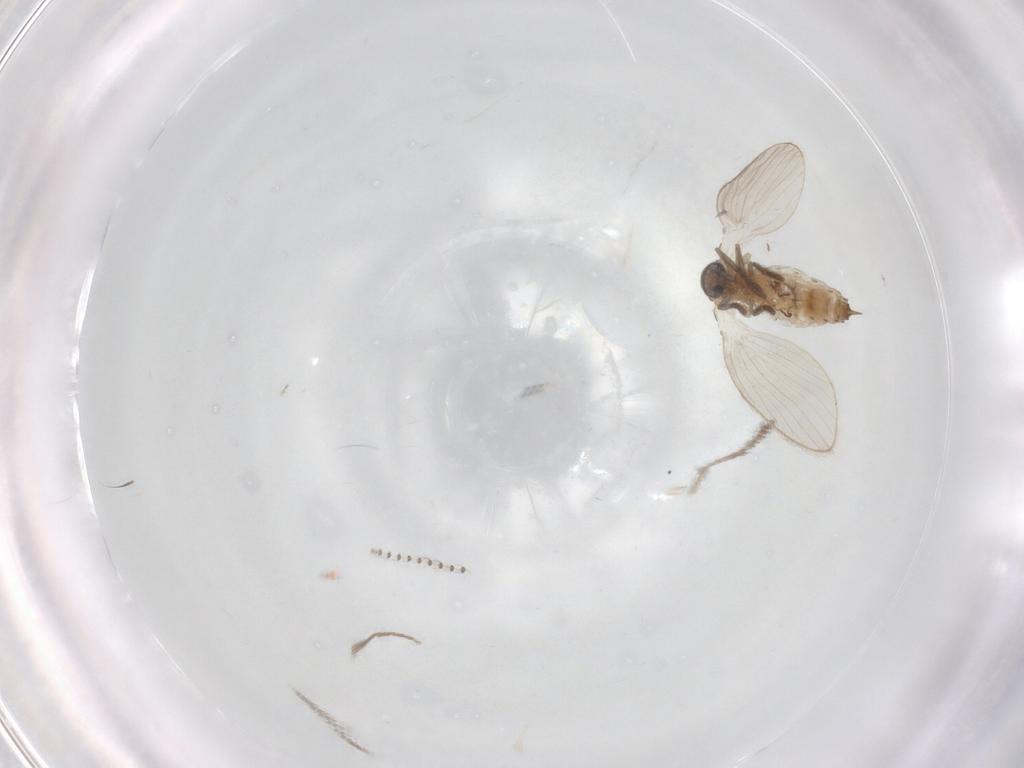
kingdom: Animalia
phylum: Arthropoda
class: Insecta
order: Diptera
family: Psychodidae
